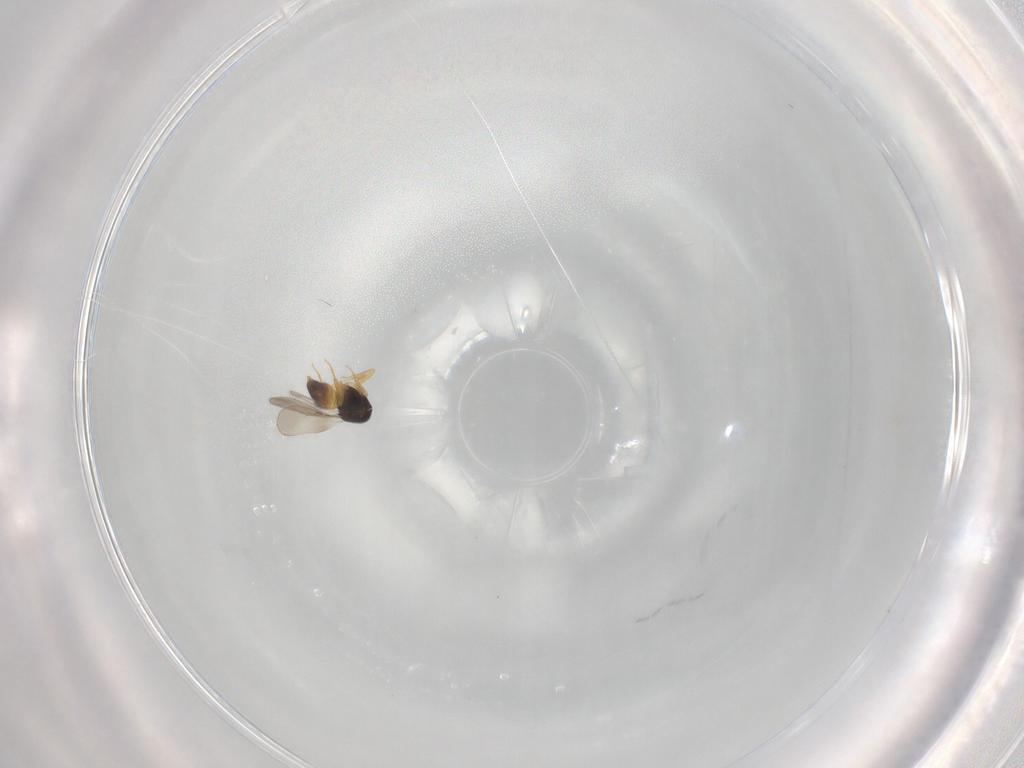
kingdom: Animalia
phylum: Arthropoda
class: Insecta
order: Hymenoptera
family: Ceraphronidae
